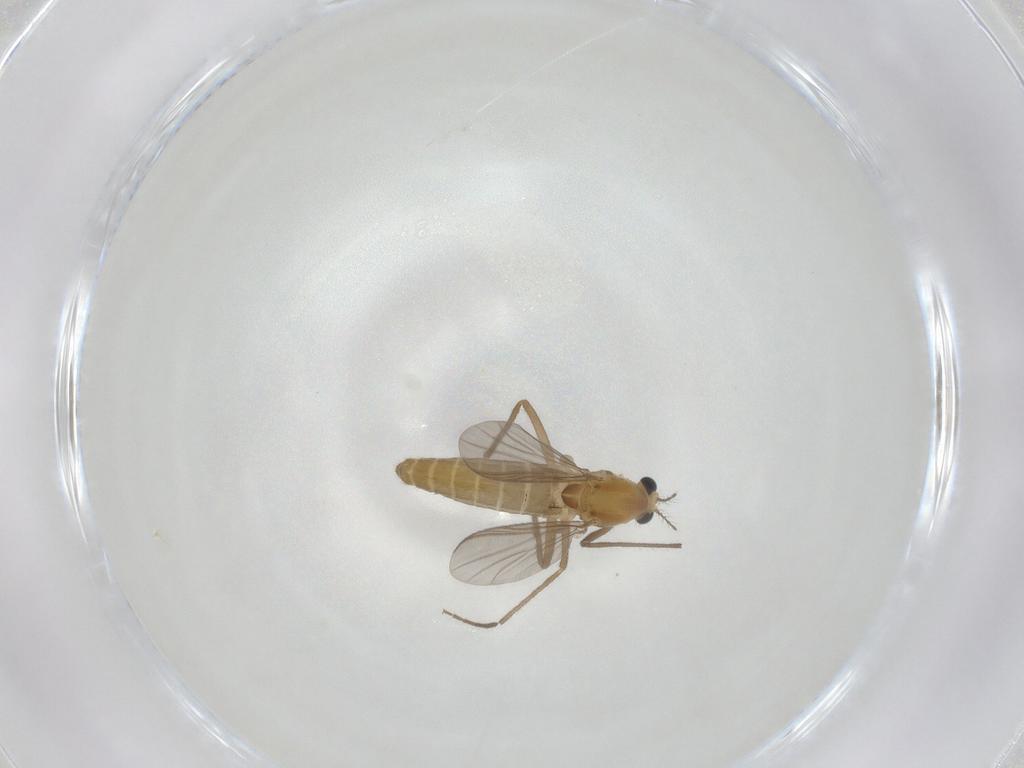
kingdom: Animalia
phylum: Arthropoda
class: Insecta
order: Diptera
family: Chironomidae
